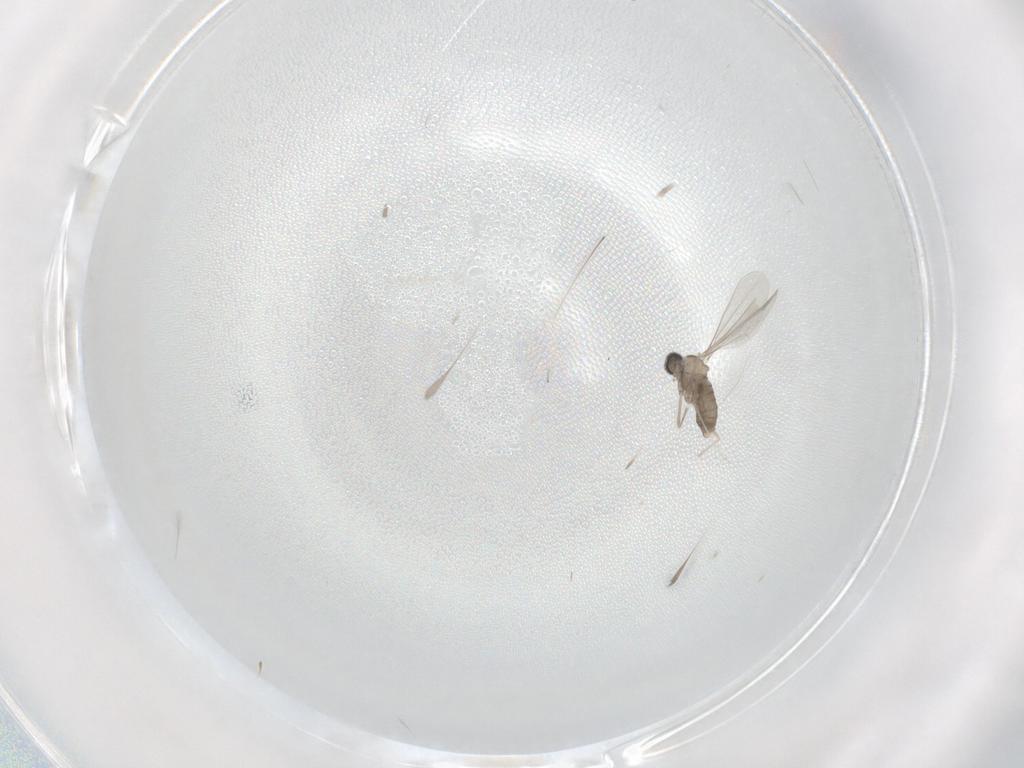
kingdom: Animalia
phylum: Arthropoda
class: Insecta
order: Diptera
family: Cecidomyiidae
